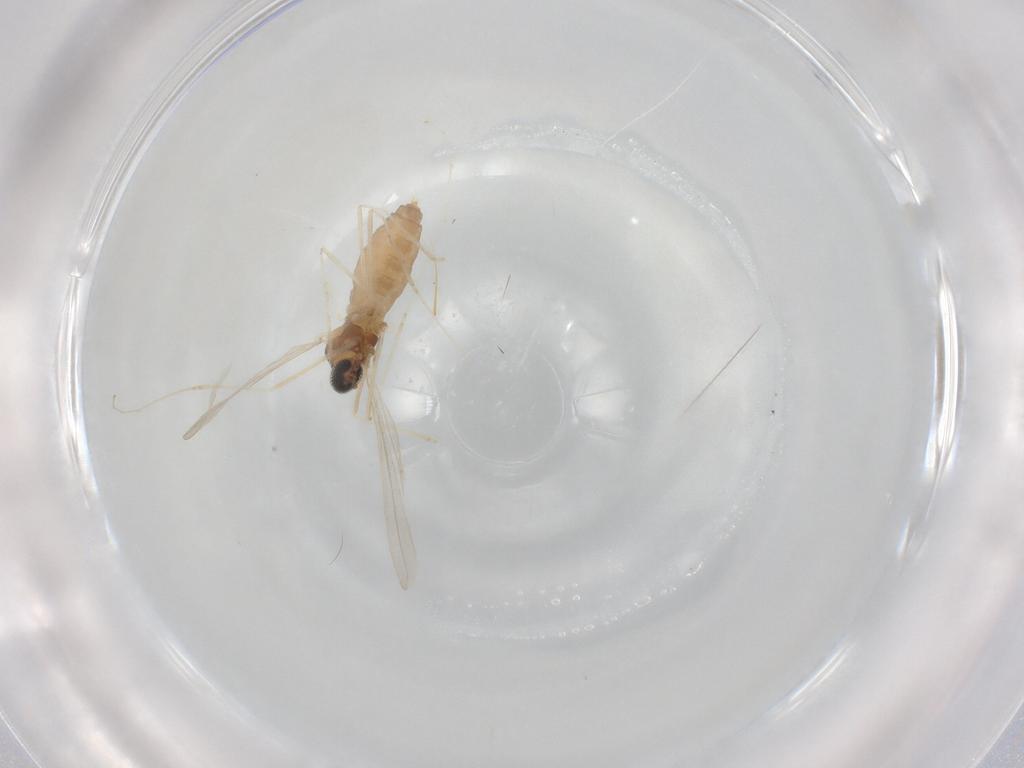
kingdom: Animalia
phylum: Arthropoda
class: Insecta
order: Diptera
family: Cecidomyiidae
